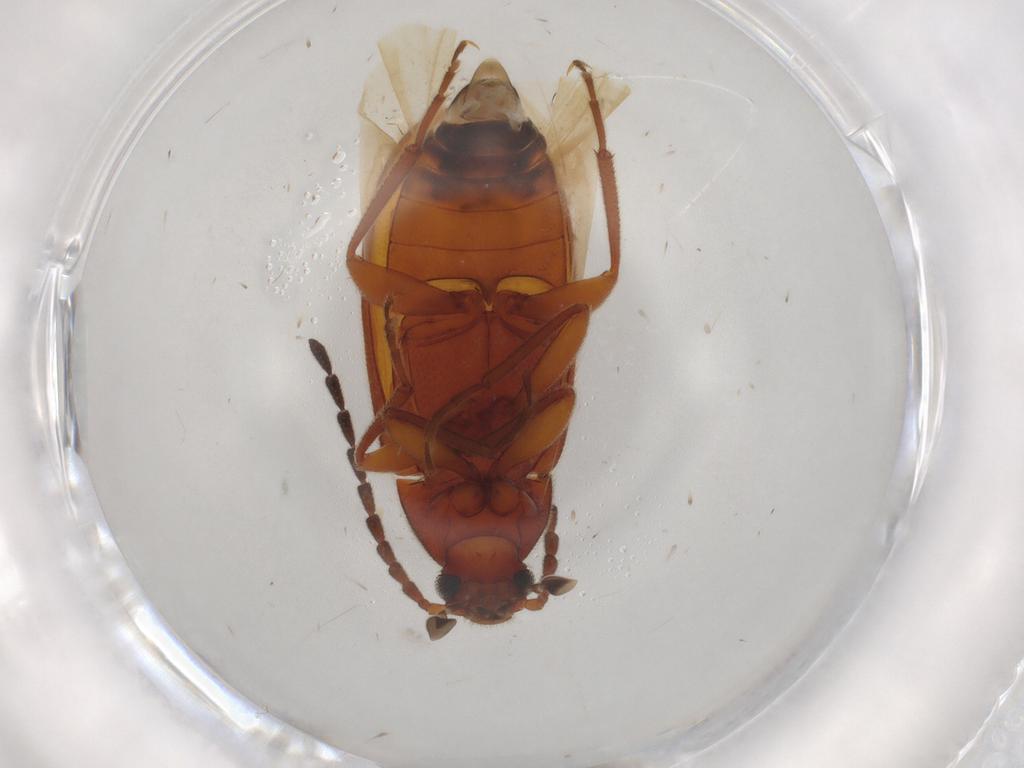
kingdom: Animalia
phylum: Arthropoda
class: Insecta
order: Coleoptera
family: Tenebrionidae
